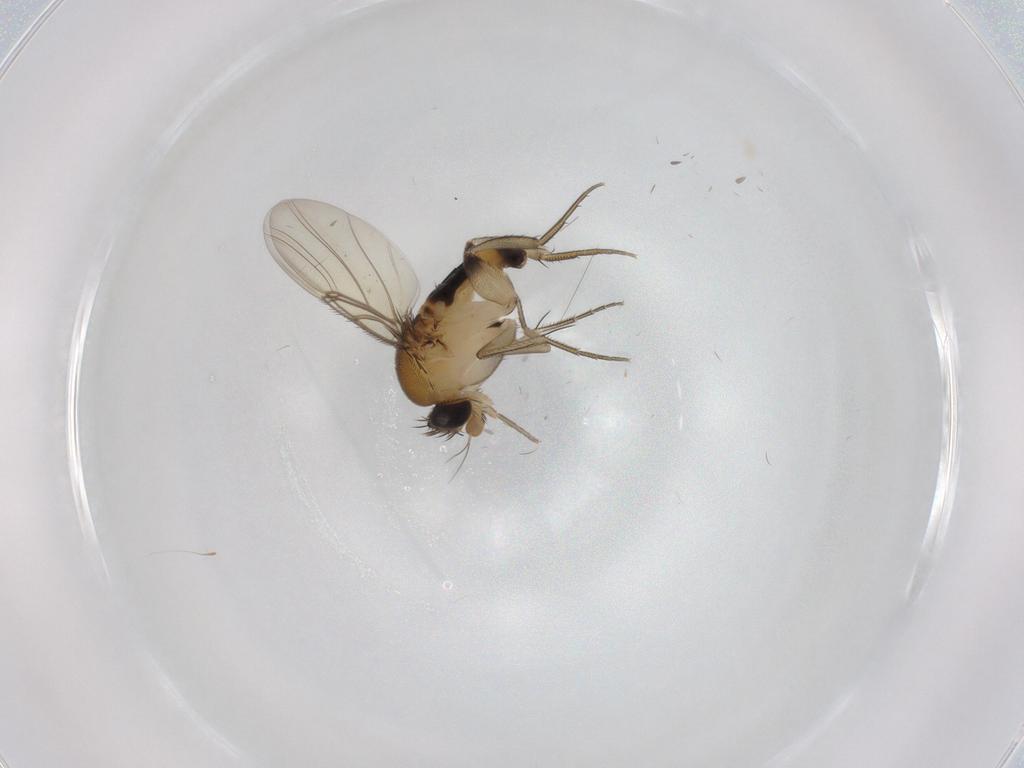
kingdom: Animalia
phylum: Arthropoda
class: Insecta
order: Diptera
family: Phoridae
